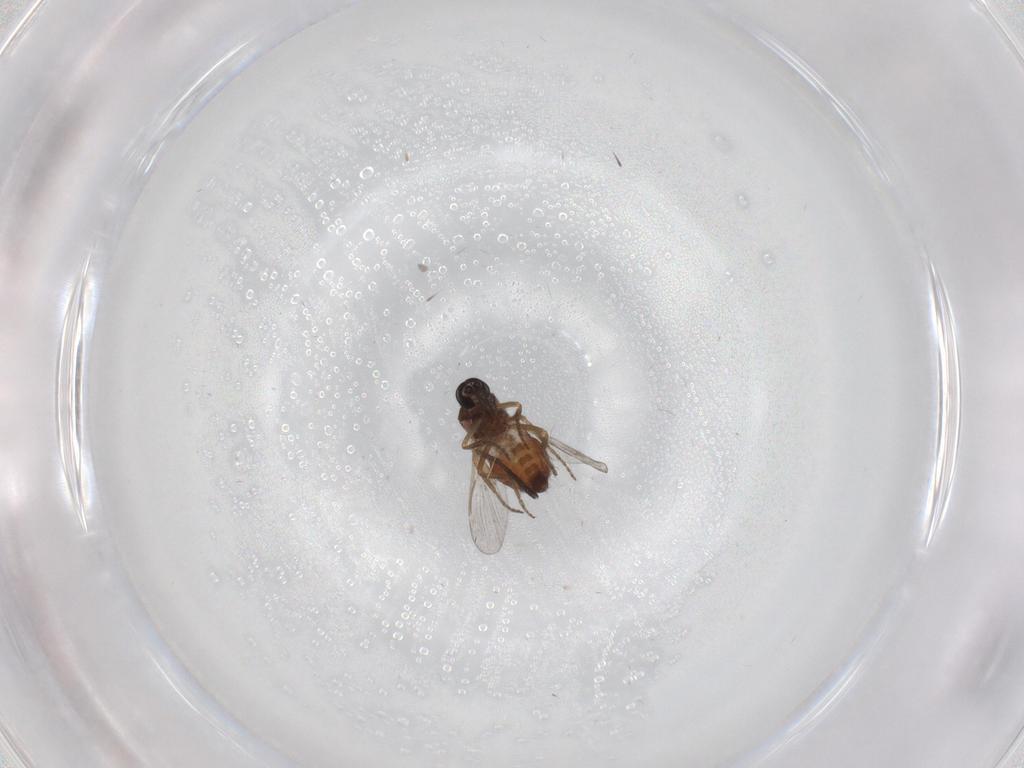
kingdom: Animalia
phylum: Arthropoda
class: Insecta
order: Diptera
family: Ceratopogonidae
